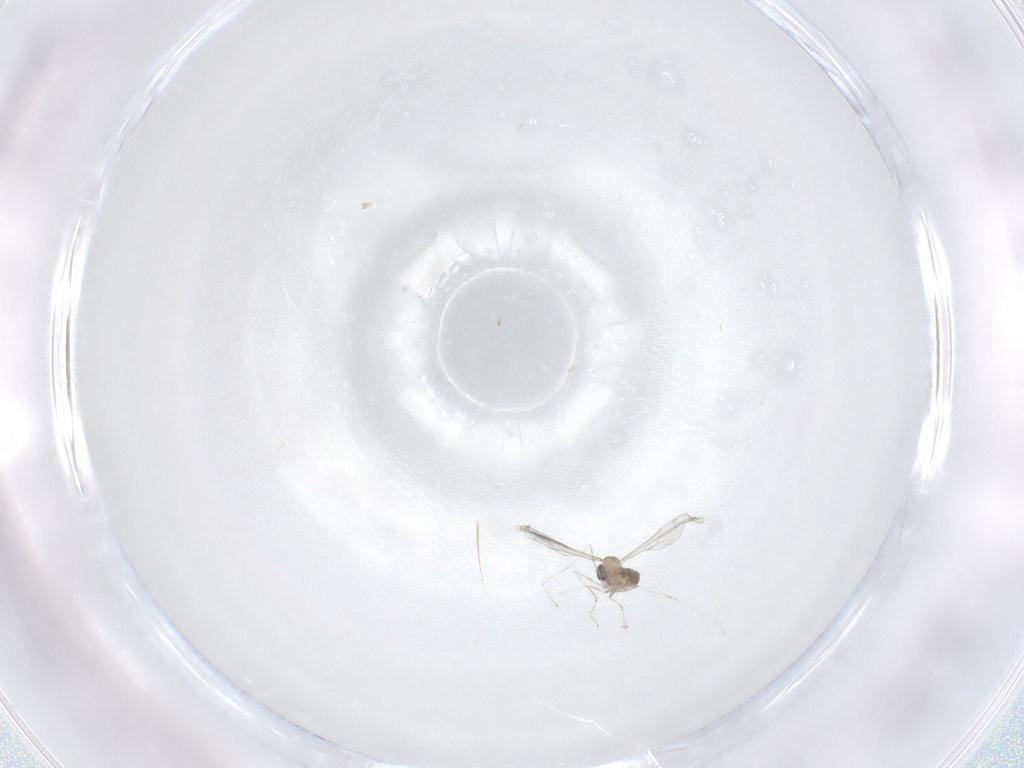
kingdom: Animalia
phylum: Arthropoda
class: Insecta
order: Diptera
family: Cecidomyiidae
